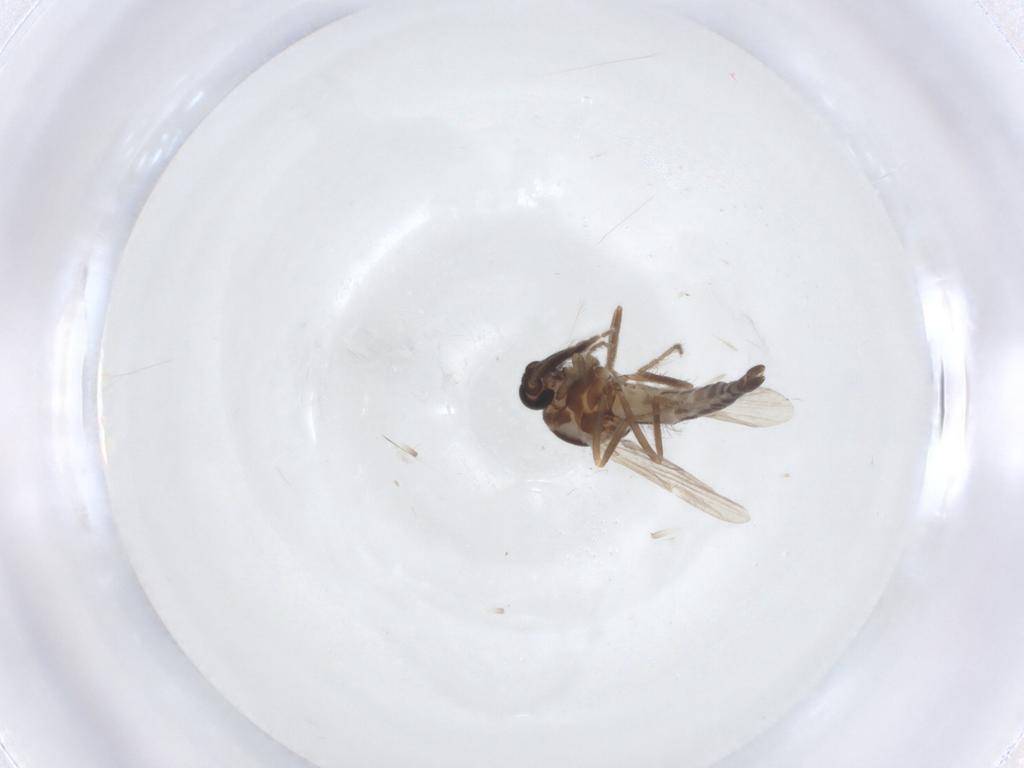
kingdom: Animalia
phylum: Arthropoda
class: Insecta
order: Diptera
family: Ceratopogonidae
